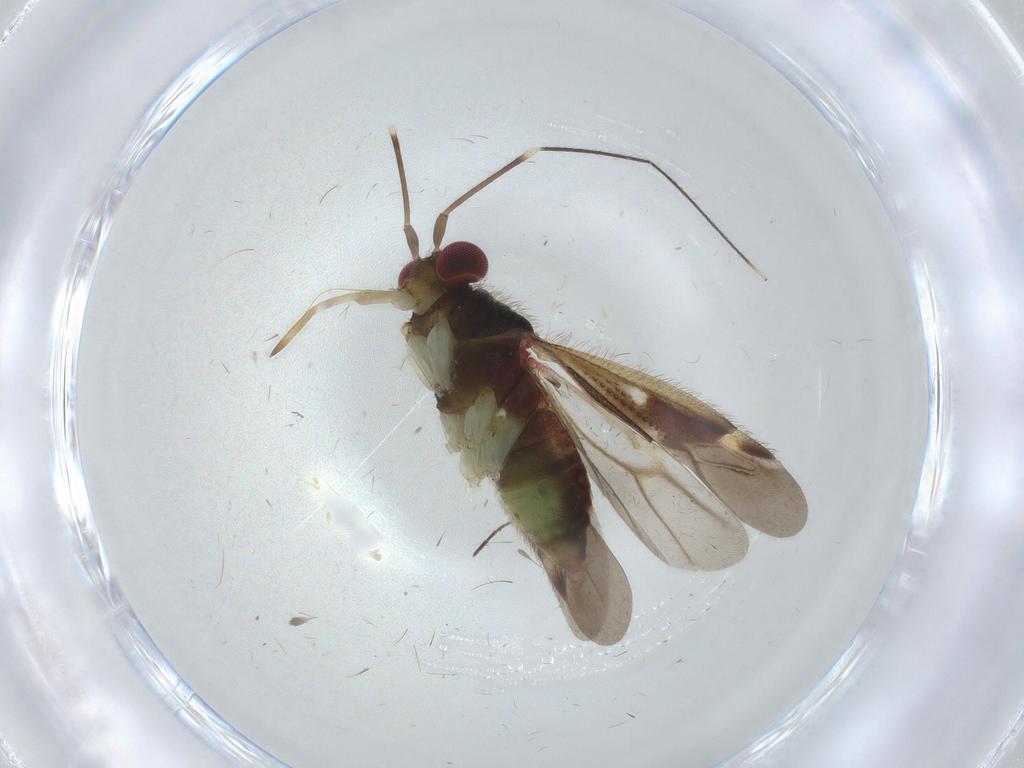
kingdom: Animalia
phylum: Arthropoda
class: Insecta
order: Hemiptera
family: Miridae
